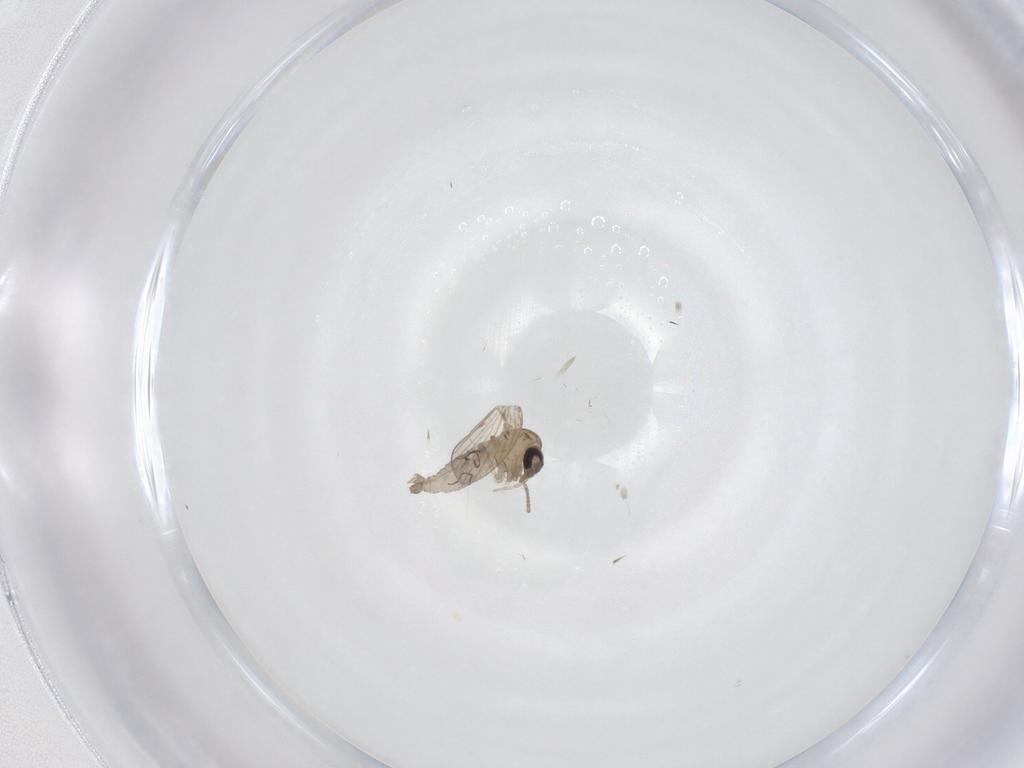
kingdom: Animalia
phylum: Arthropoda
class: Insecta
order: Diptera
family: Psychodidae
